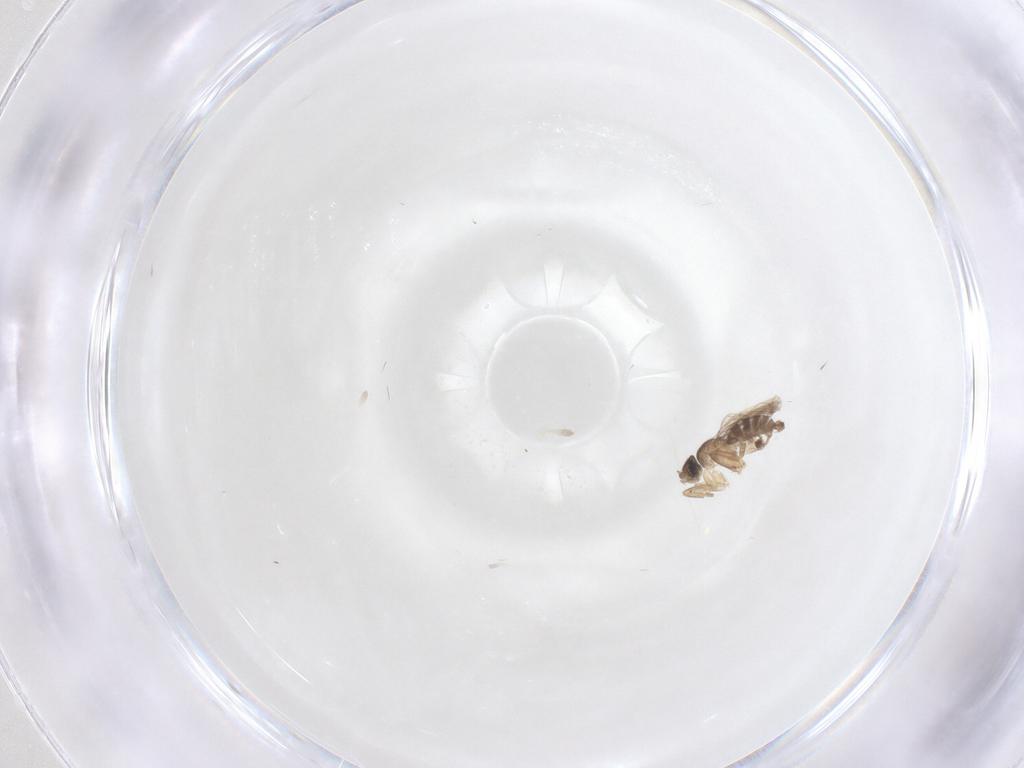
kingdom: Animalia
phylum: Arthropoda
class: Insecta
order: Diptera
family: Phoridae
